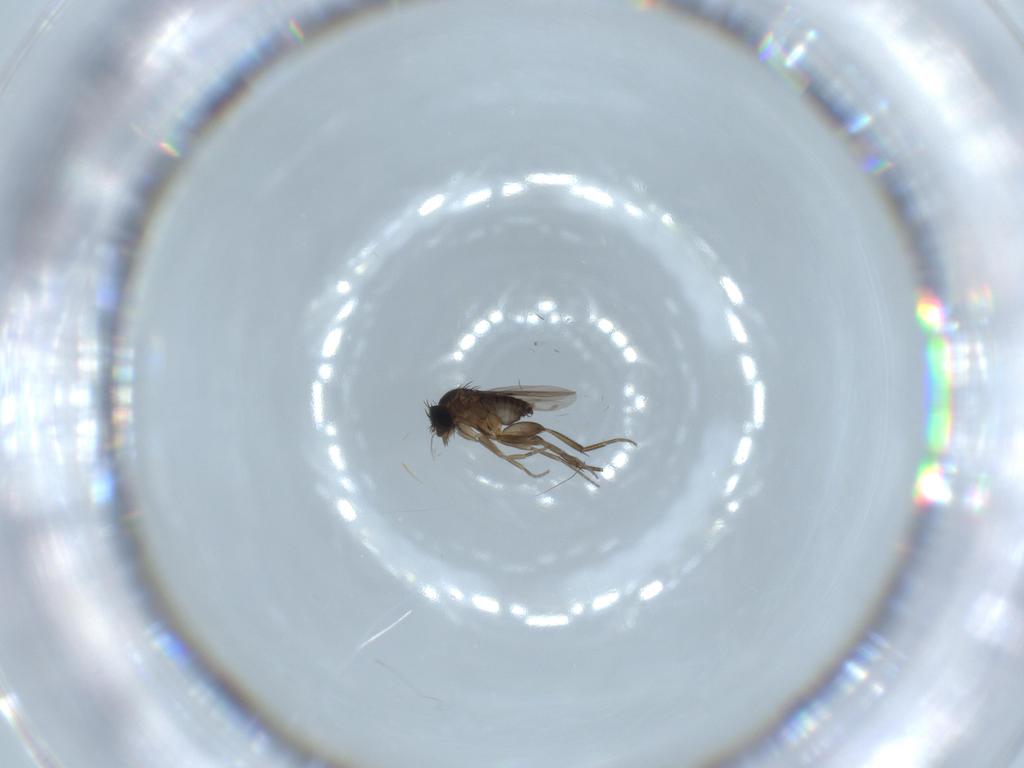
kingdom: Animalia
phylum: Arthropoda
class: Insecta
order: Diptera
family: Phoridae
